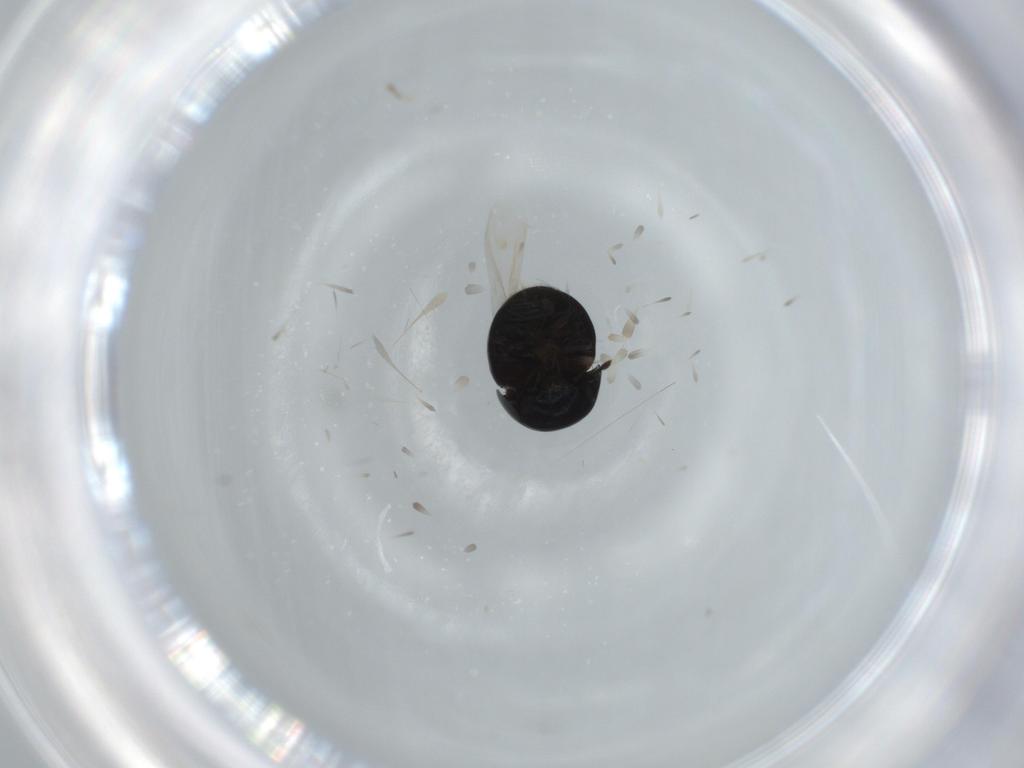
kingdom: Animalia
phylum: Arthropoda
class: Insecta
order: Coleoptera
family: Cybocephalidae
